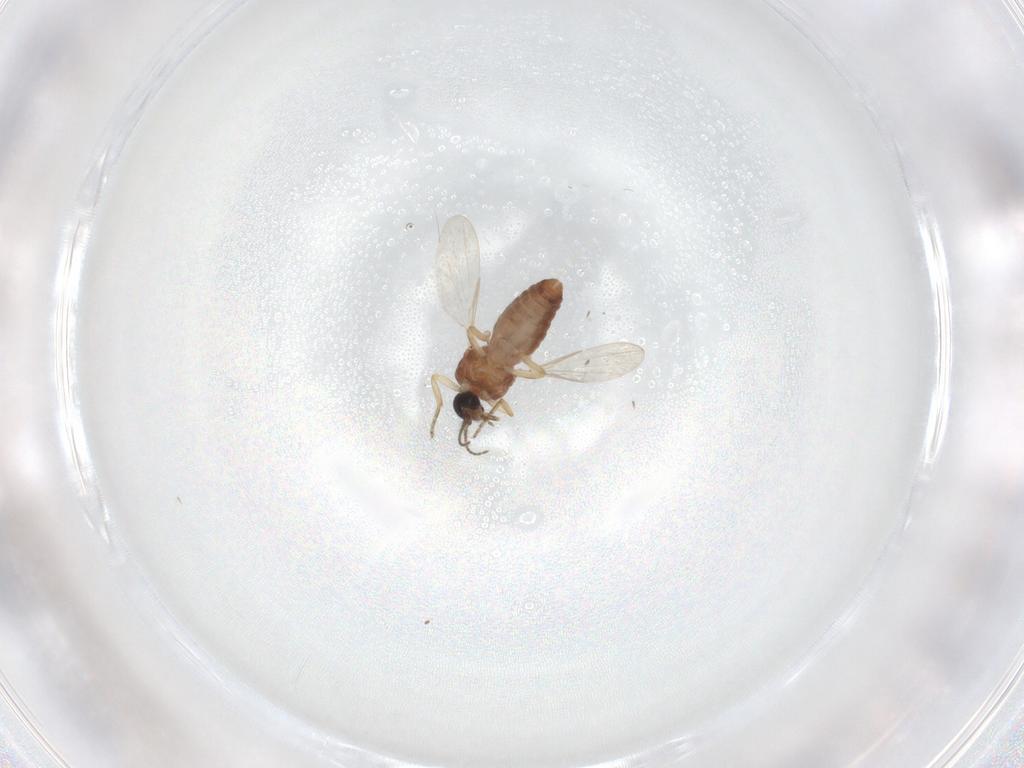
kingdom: Animalia
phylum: Arthropoda
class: Insecta
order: Diptera
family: Ceratopogonidae
